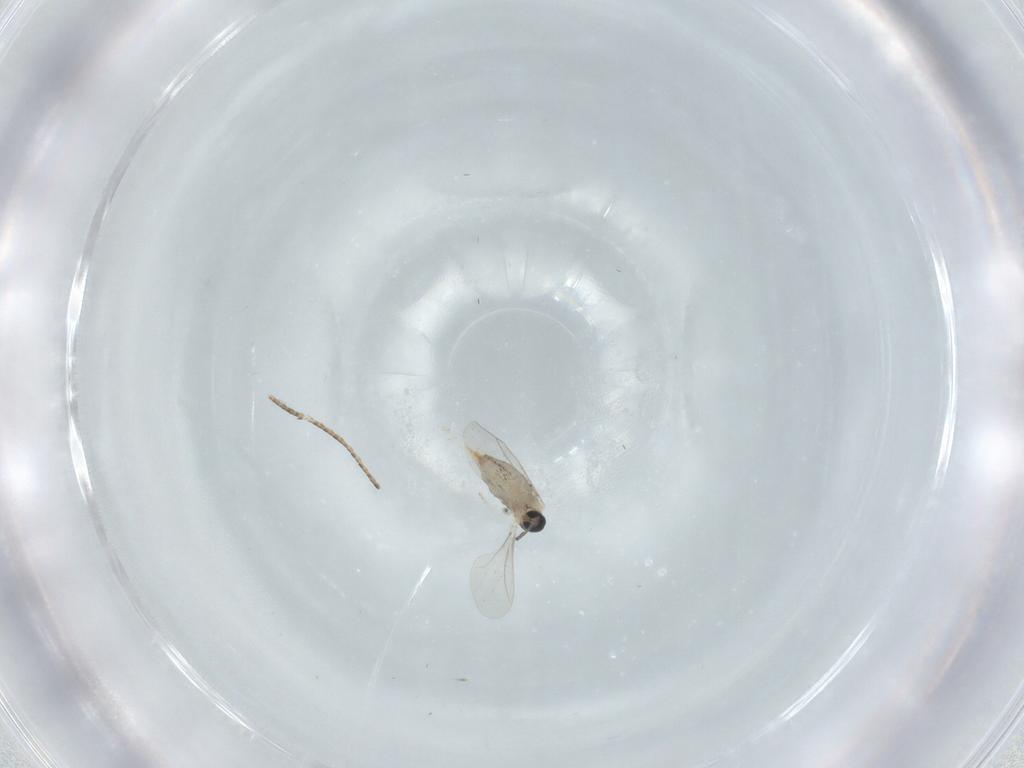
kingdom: Animalia
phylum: Arthropoda
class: Insecta
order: Diptera
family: Cecidomyiidae
